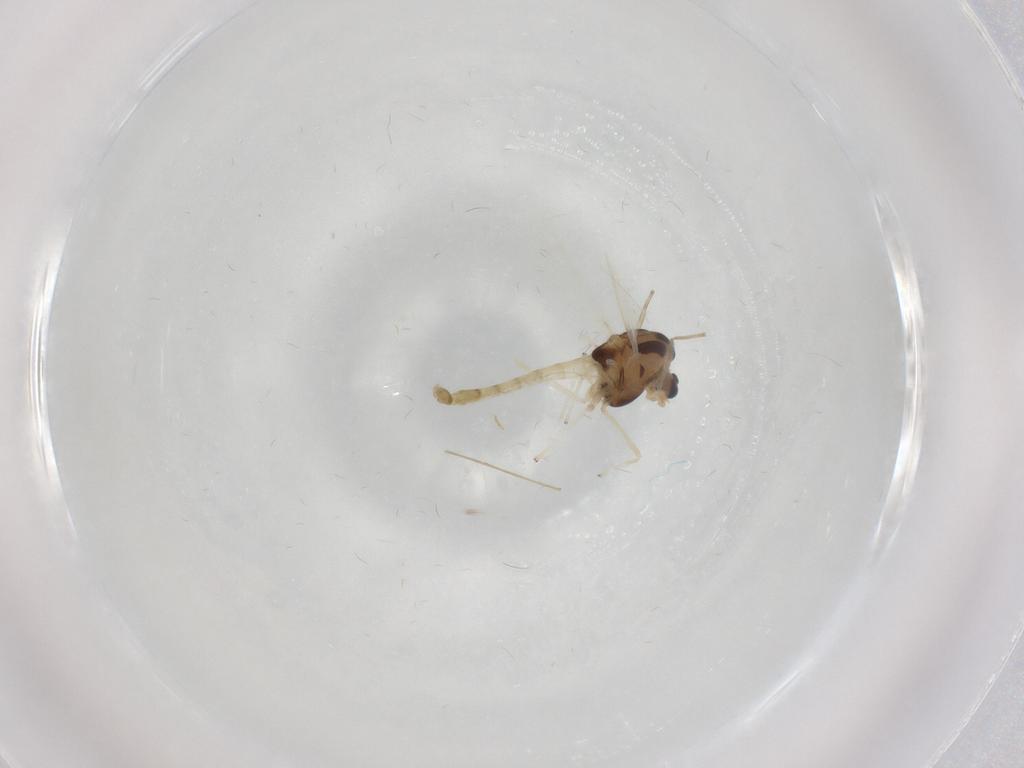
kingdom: Animalia
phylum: Arthropoda
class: Insecta
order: Diptera
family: Chironomidae
